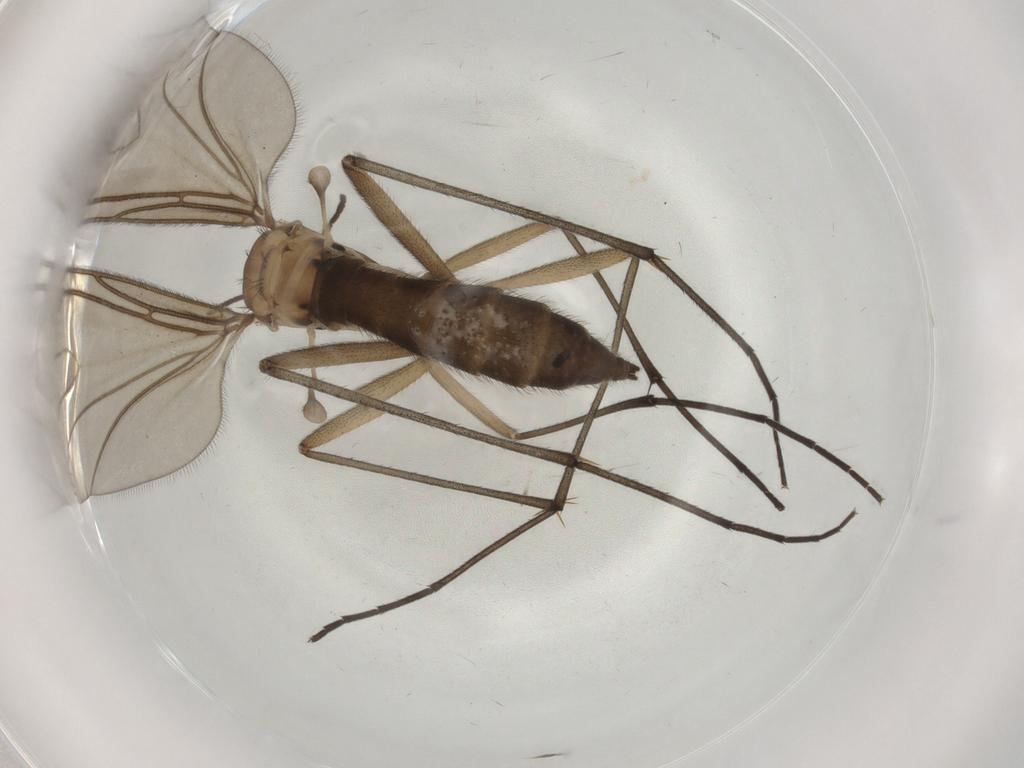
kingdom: Animalia
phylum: Arthropoda
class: Insecta
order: Diptera
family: Sciaridae
